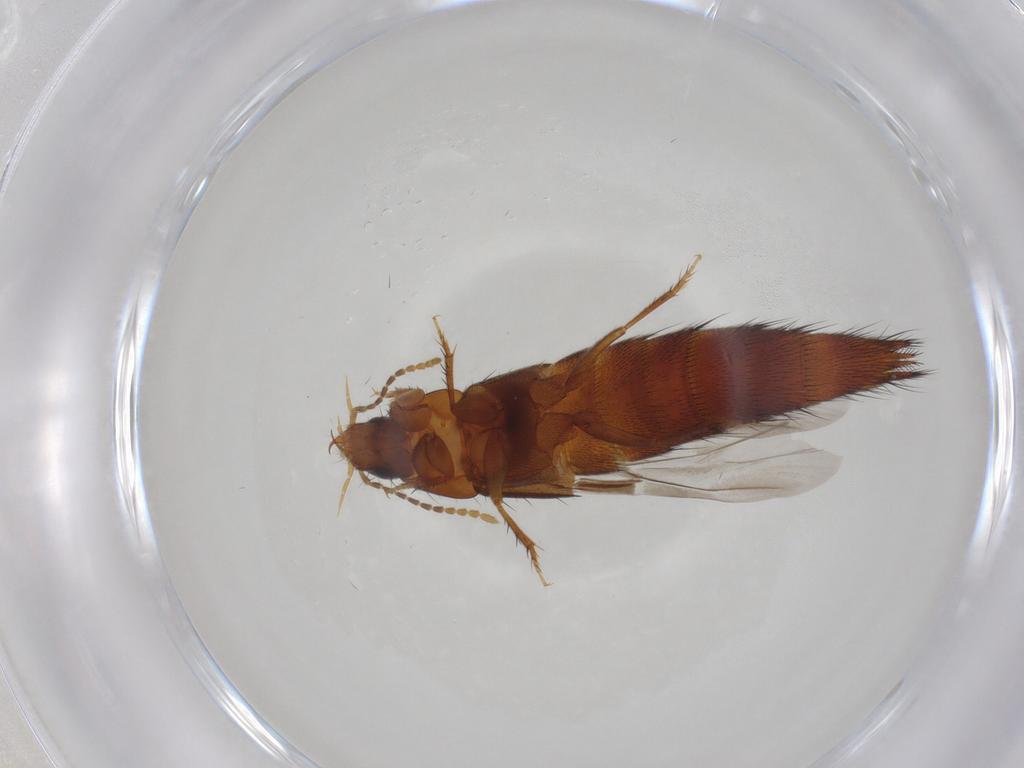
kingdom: Animalia
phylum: Arthropoda
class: Insecta
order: Coleoptera
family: Staphylinidae
